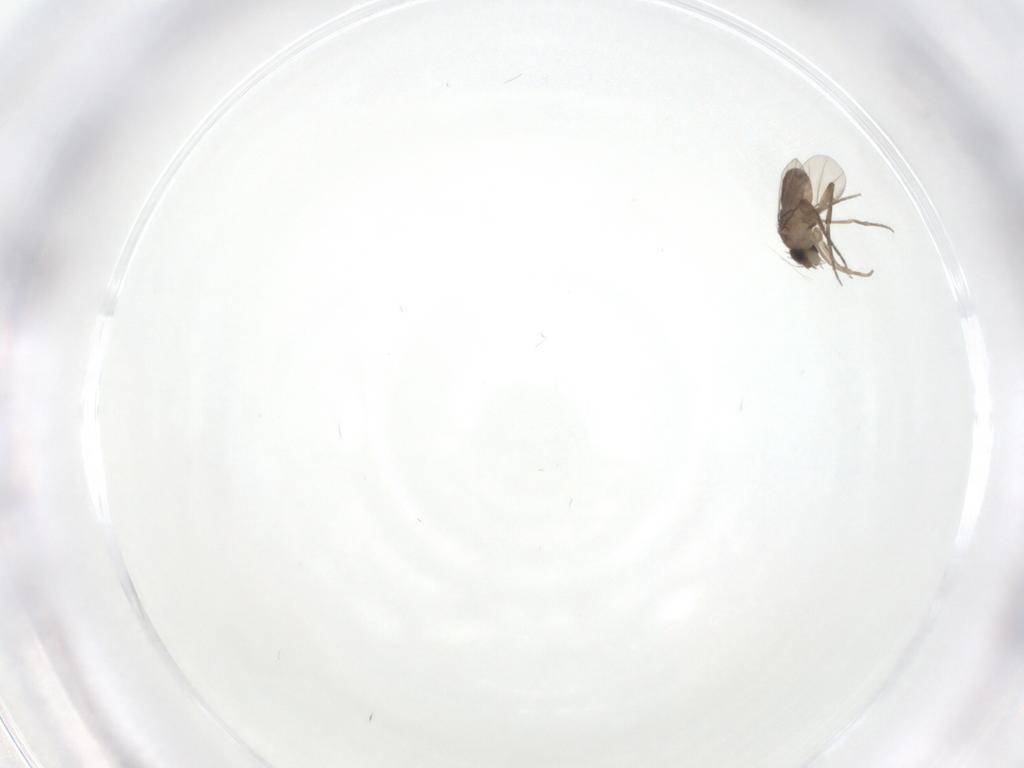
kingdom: Animalia
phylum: Arthropoda
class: Insecta
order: Diptera
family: Phoridae
